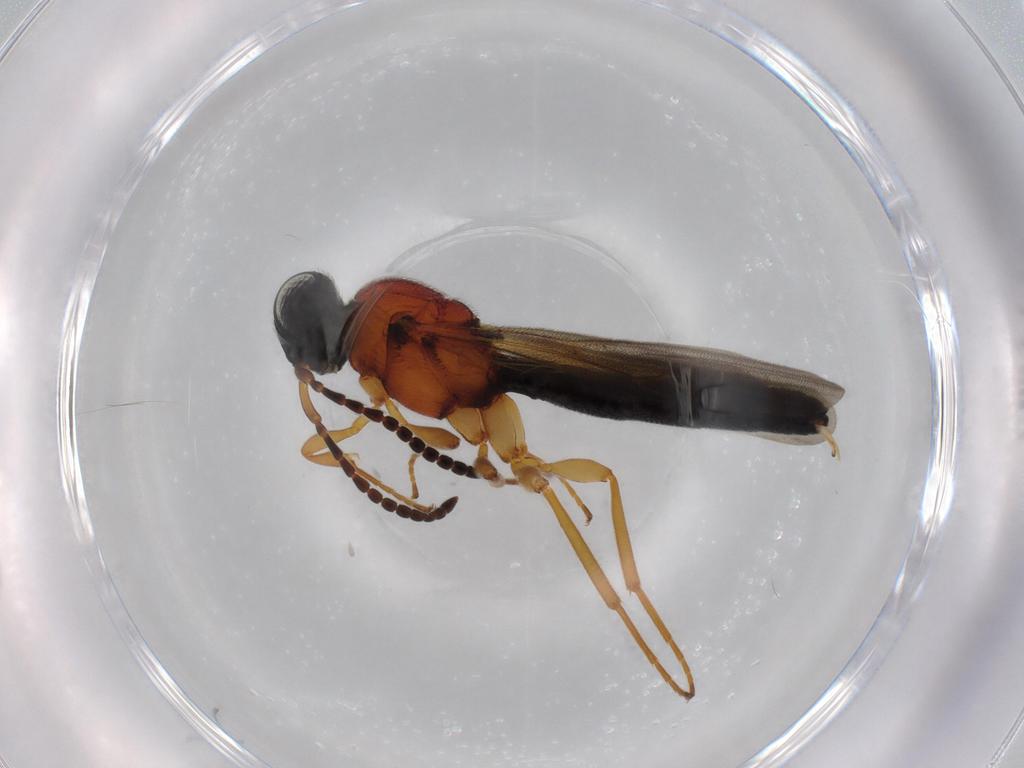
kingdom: Animalia
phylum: Arthropoda
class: Insecta
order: Hymenoptera
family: Scelionidae
